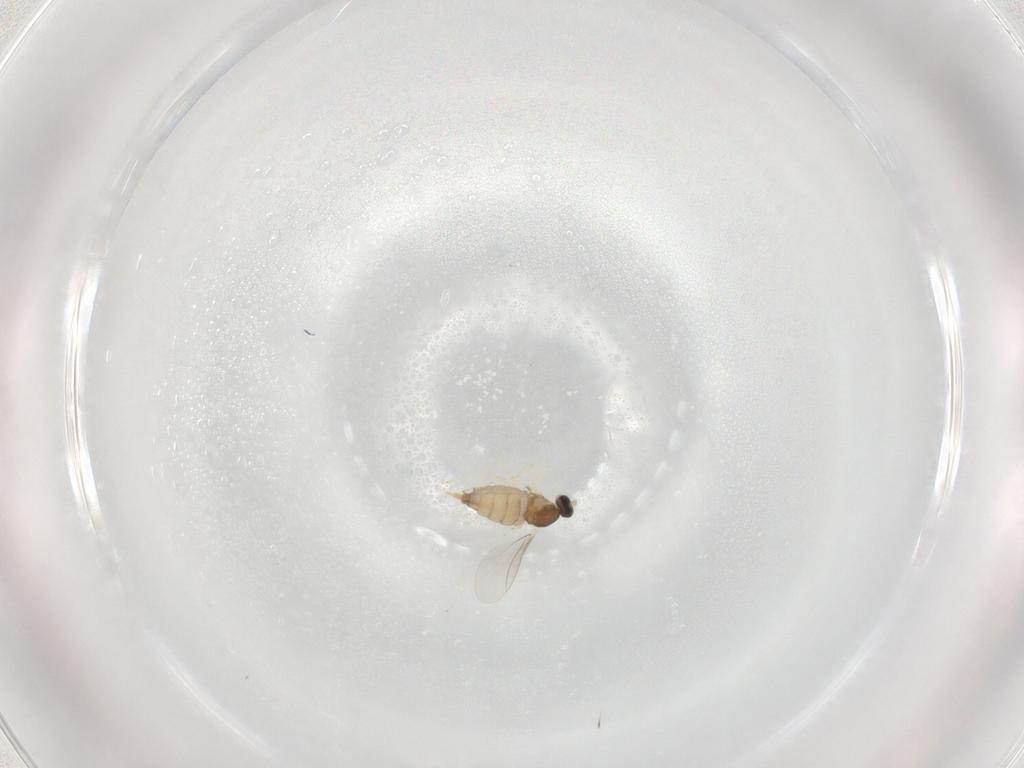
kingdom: Animalia
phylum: Arthropoda
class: Insecta
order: Diptera
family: Cecidomyiidae
